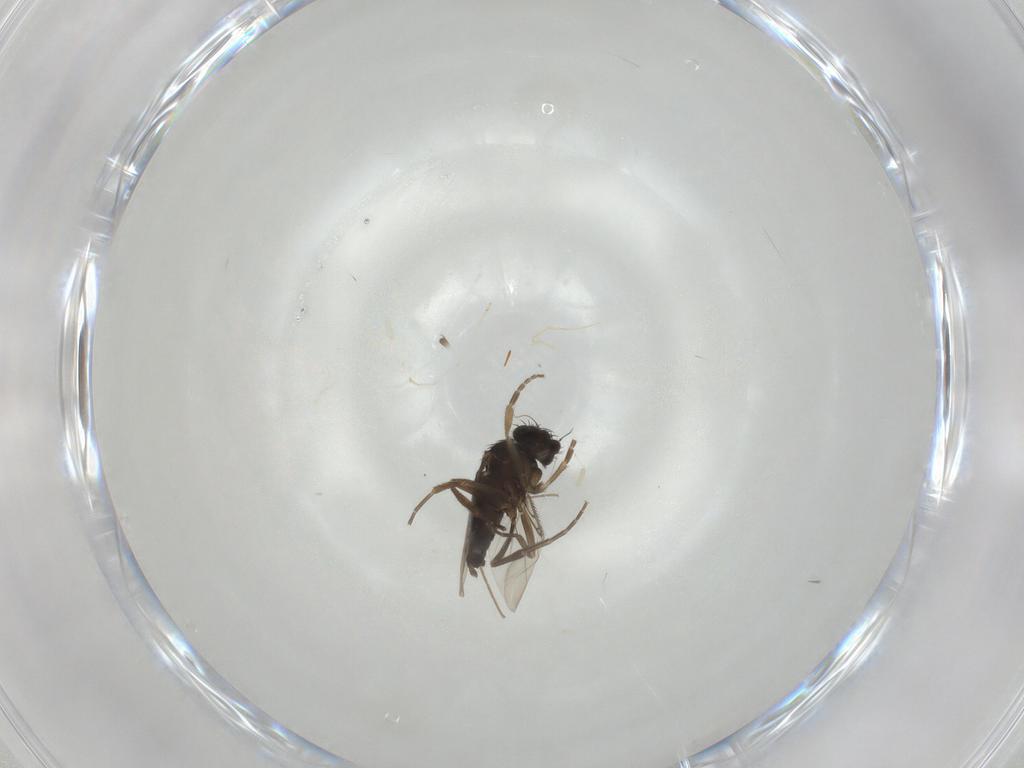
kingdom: Animalia
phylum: Arthropoda
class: Insecta
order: Diptera
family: Phoridae
